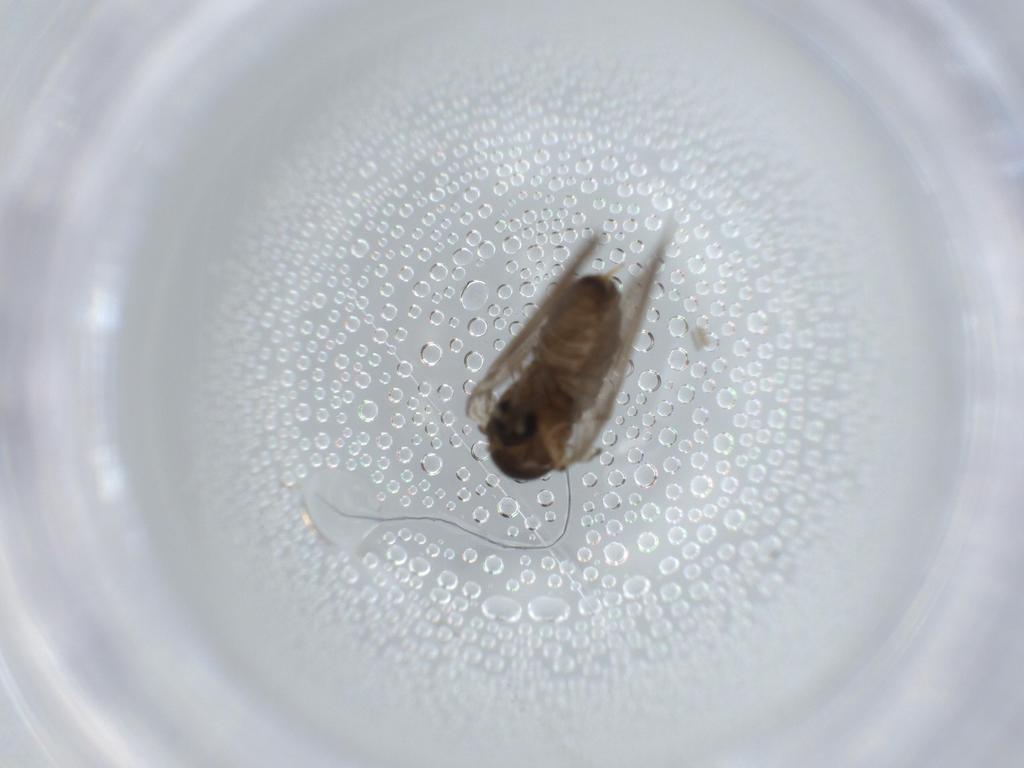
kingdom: Animalia
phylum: Arthropoda
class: Insecta
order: Diptera
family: Psychodidae
